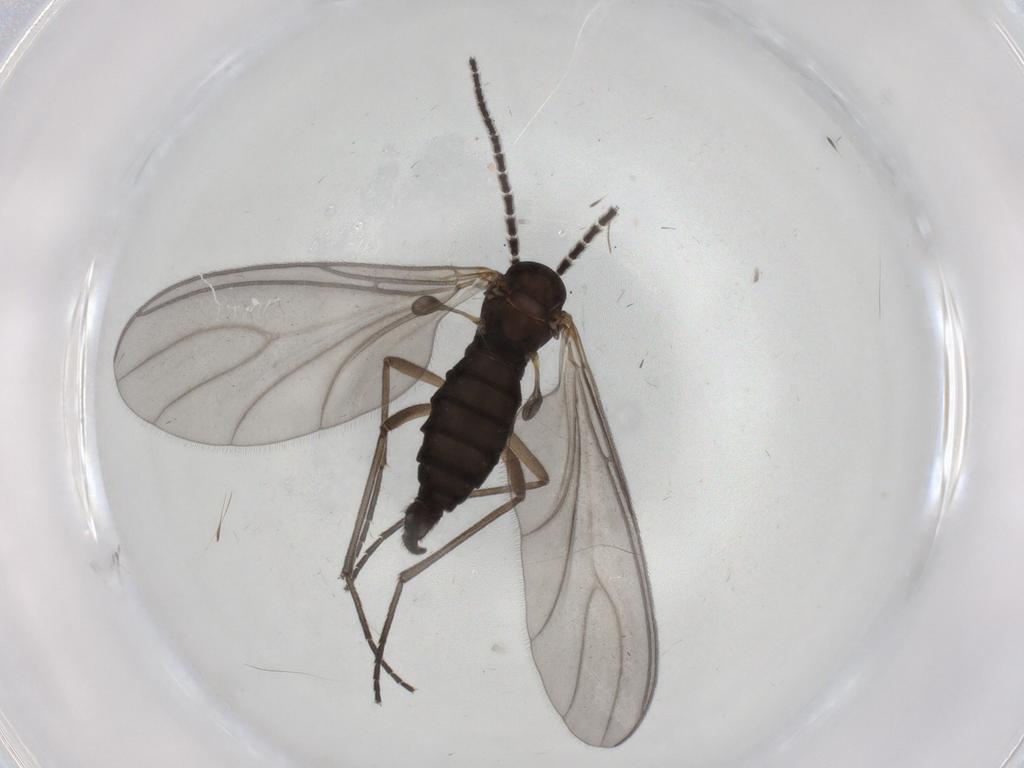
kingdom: Animalia
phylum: Arthropoda
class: Insecta
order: Diptera
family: Sciaridae
